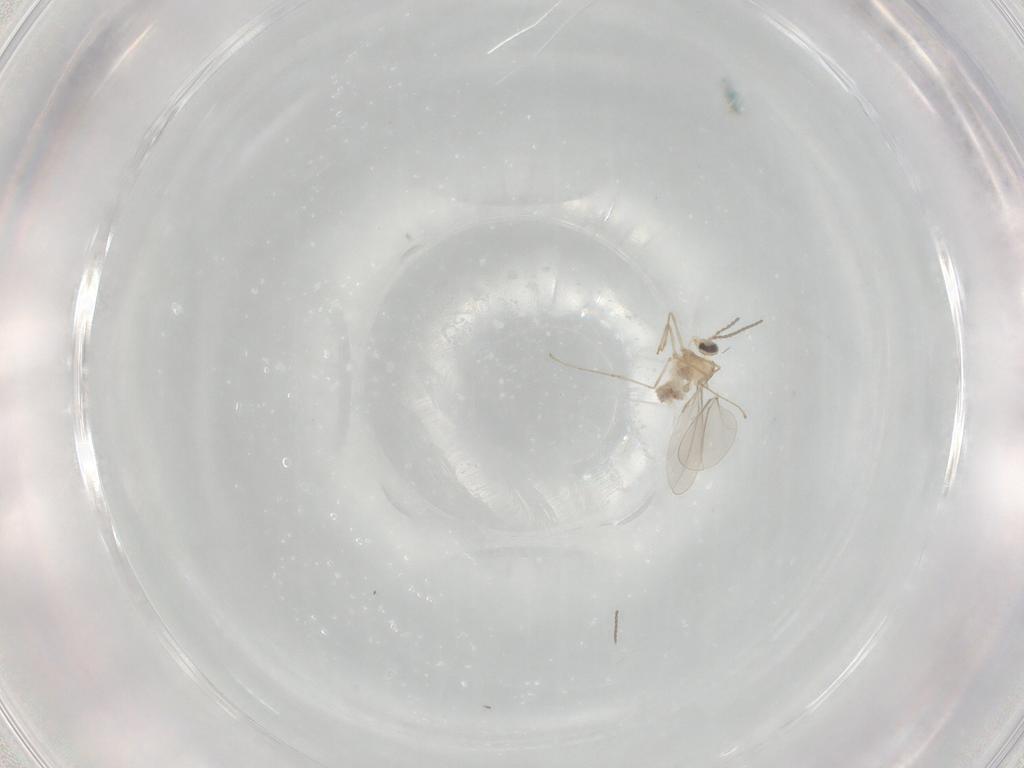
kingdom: Animalia
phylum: Arthropoda
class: Insecta
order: Diptera
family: Cecidomyiidae
